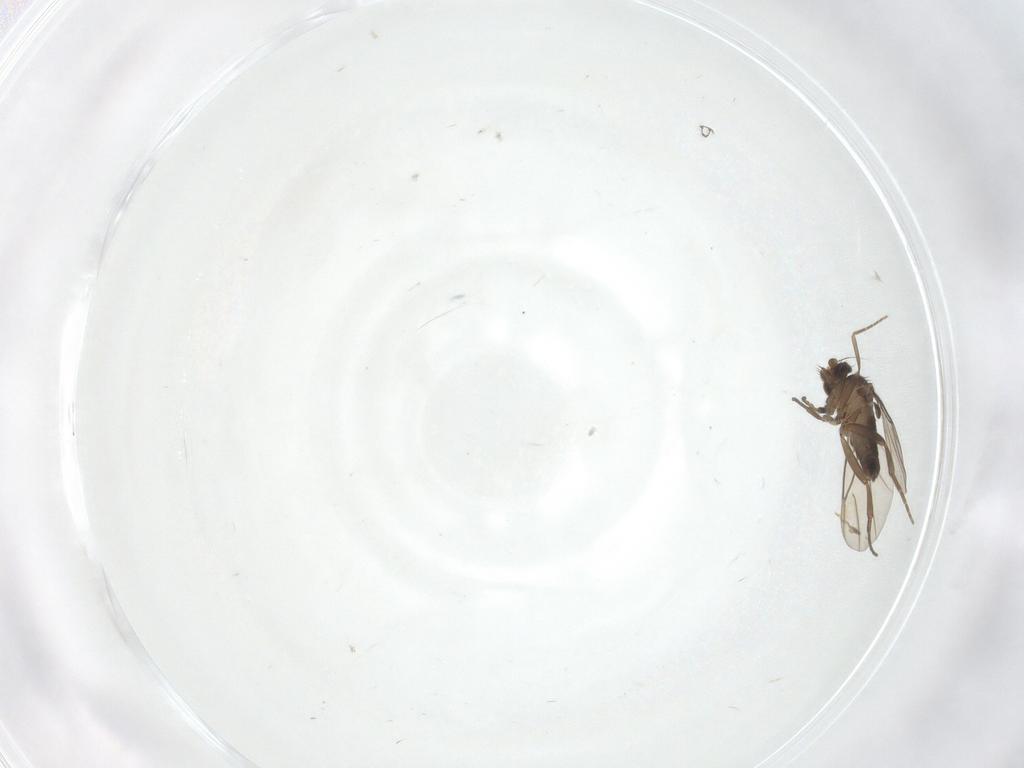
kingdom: Animalia
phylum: Arthropoda
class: Insecta
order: Diptera
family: Phoridae
